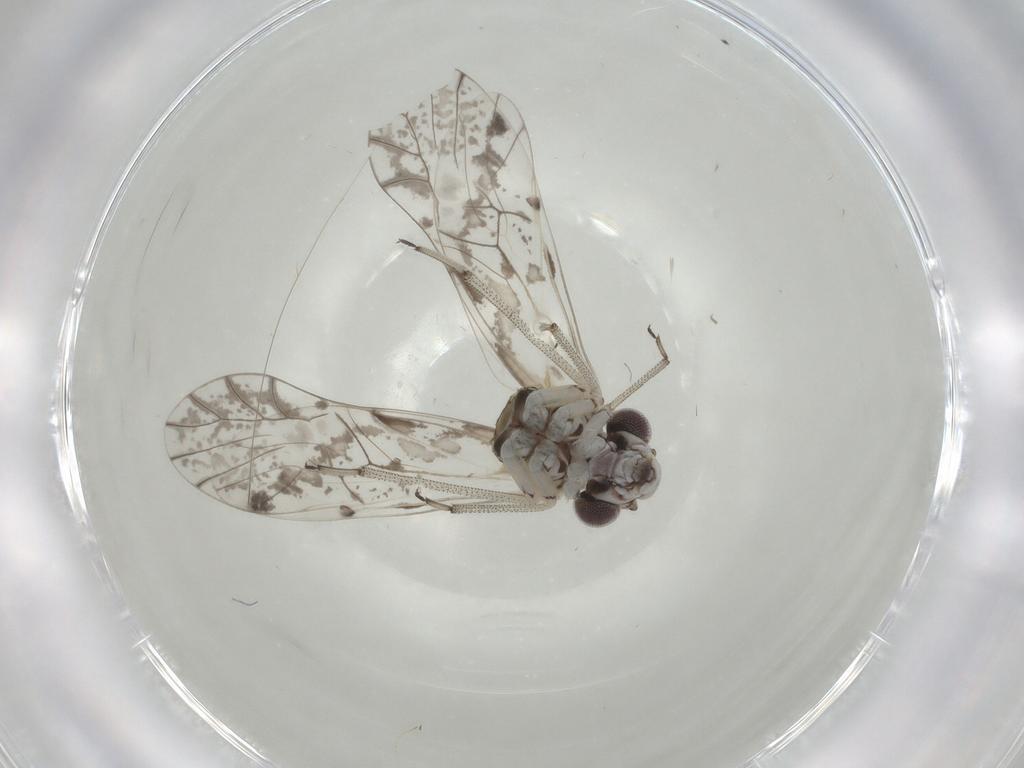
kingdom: Animalia
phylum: Arthropoda
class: Insecta
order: Psocodea
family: Psocidae
